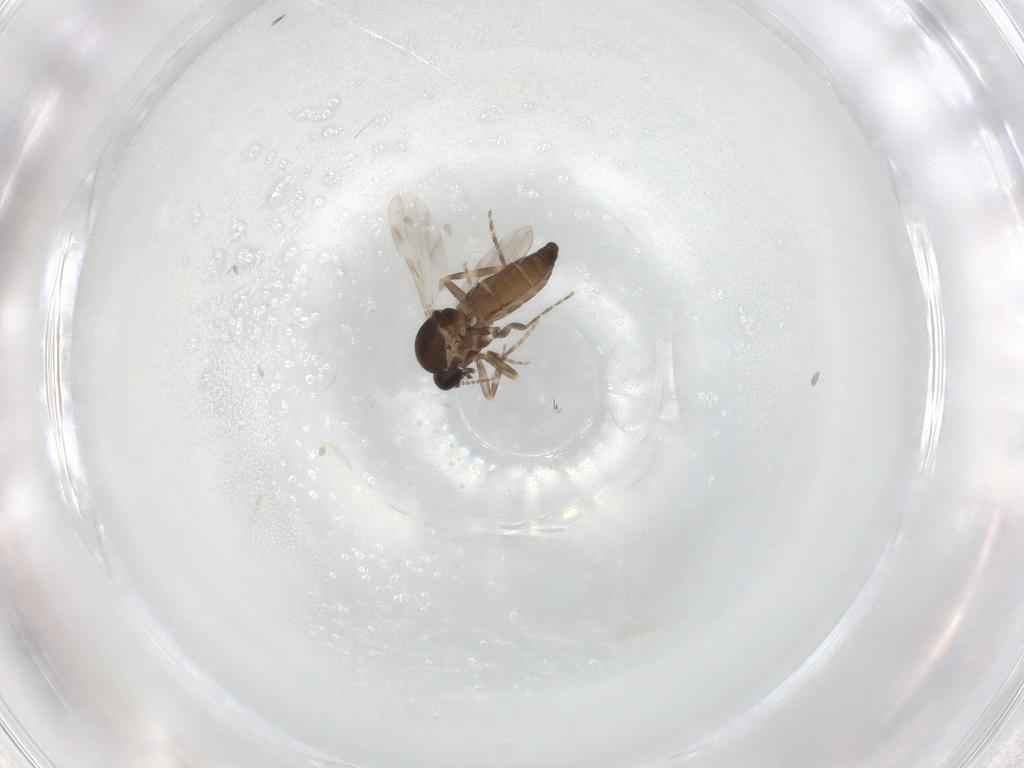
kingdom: Animalia
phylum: Arthropoda
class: Insecta
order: Diptera
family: Ceratopogonidae
